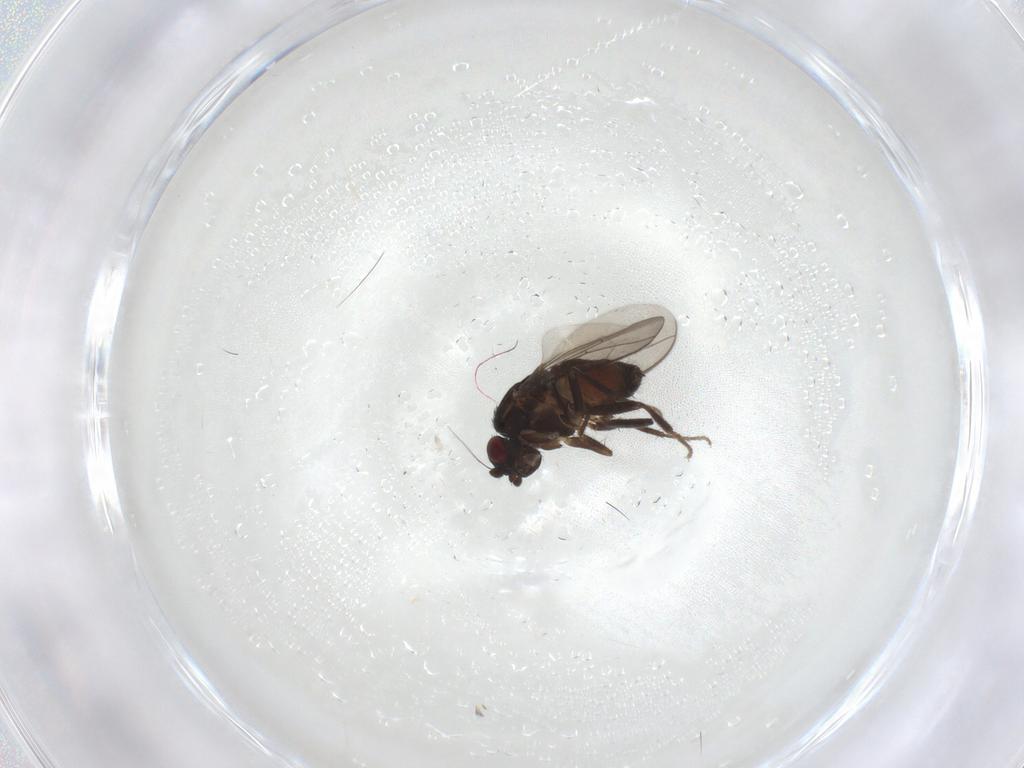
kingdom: Animalia
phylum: Arthropoda
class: Insecta
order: Diptera
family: Sphaeroceridae
